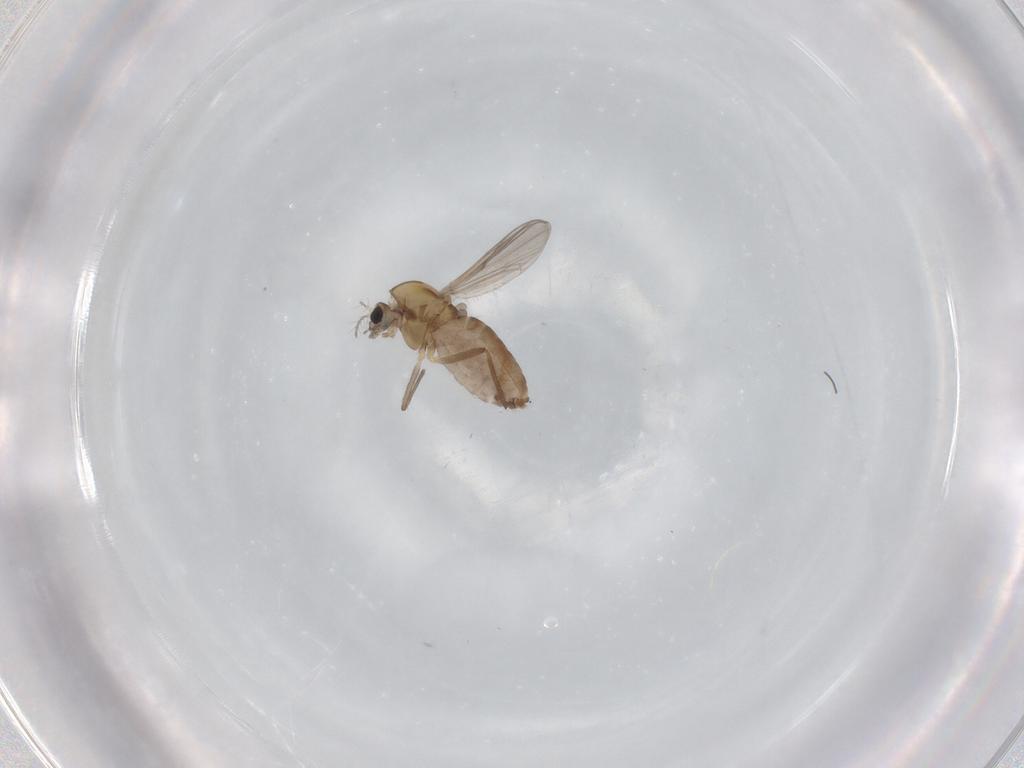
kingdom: Animalia
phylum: Arthropoda
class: Insecta
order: Diptera
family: Chironomidae
